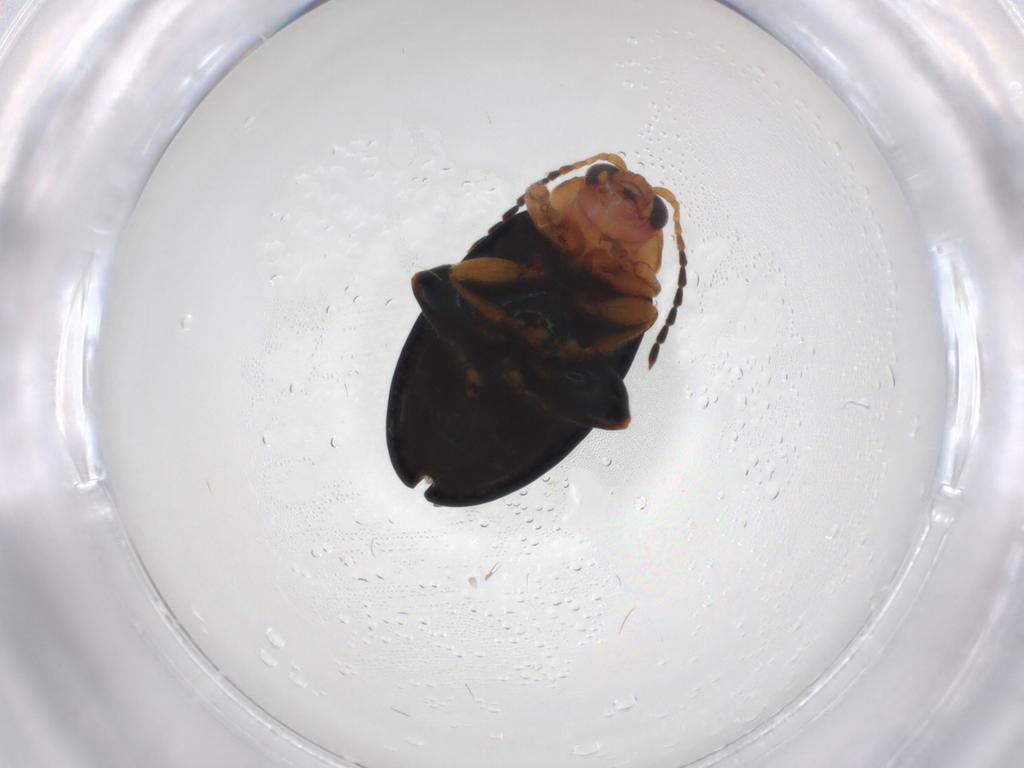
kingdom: Animalia
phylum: Arthropoda
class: Insecta
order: Coleoptera
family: Chrysomelidae
